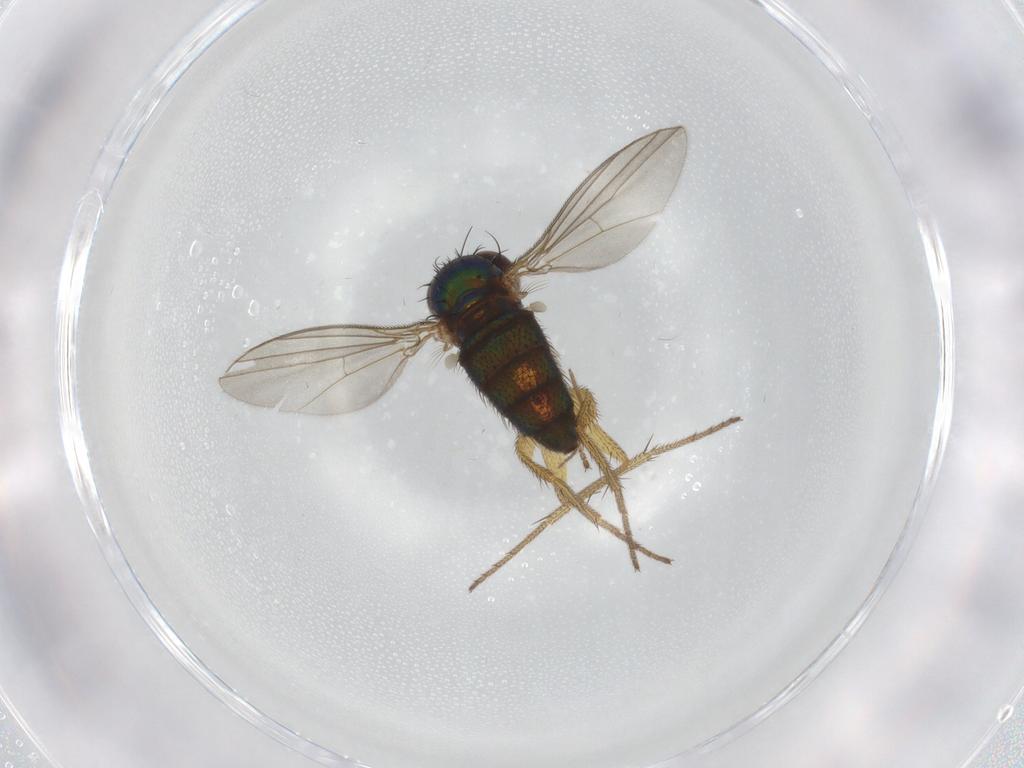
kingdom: Animalia
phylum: Arthropoda
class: Insecta
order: Diptera
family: Dolichopodidae
